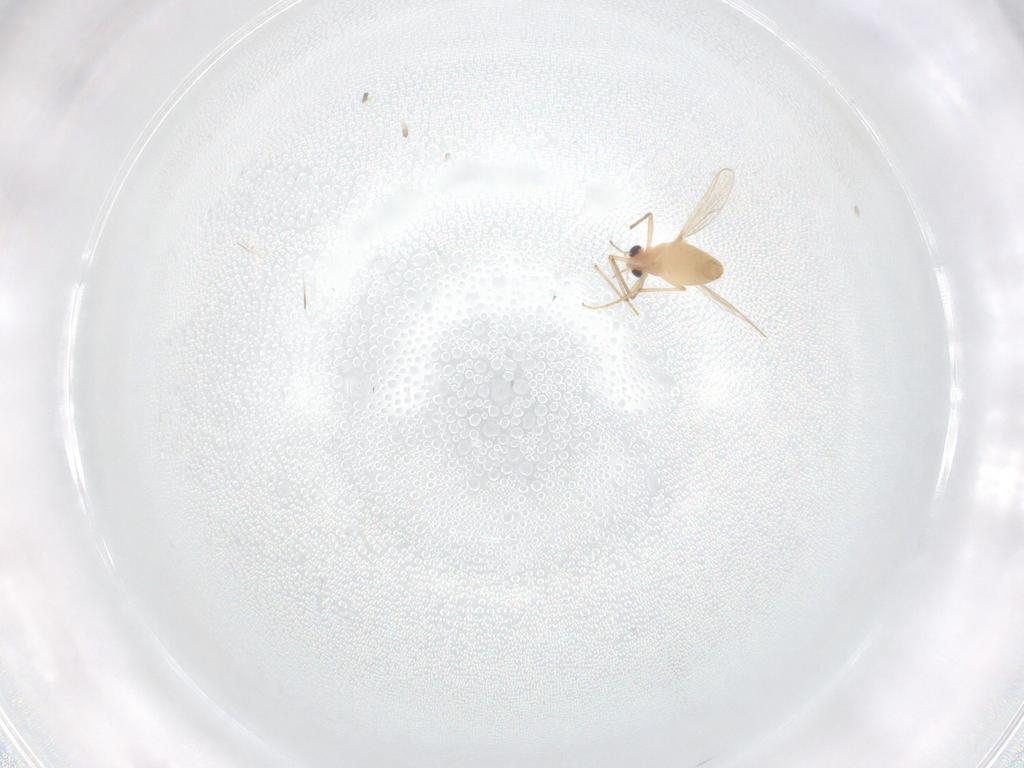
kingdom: Animalia
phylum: Arthropoda
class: Insecta
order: Diptera
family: Chironomidae
